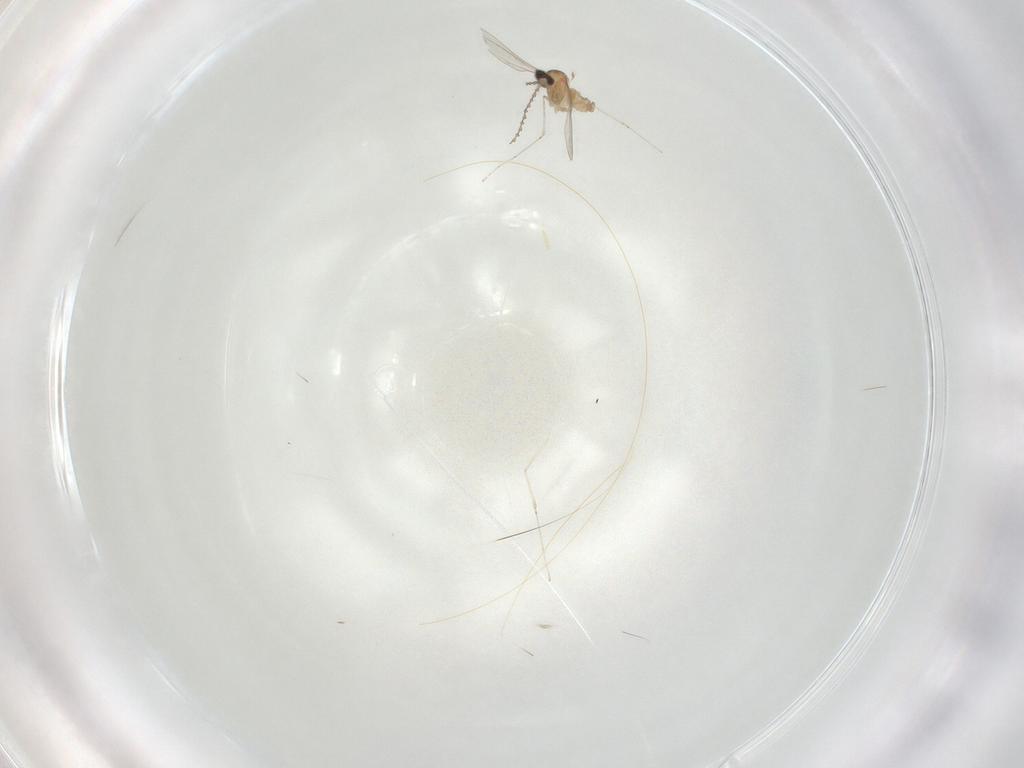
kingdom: Animalia
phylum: Arthropoda
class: Insecta
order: Diptera
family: Cecidomyiidae
